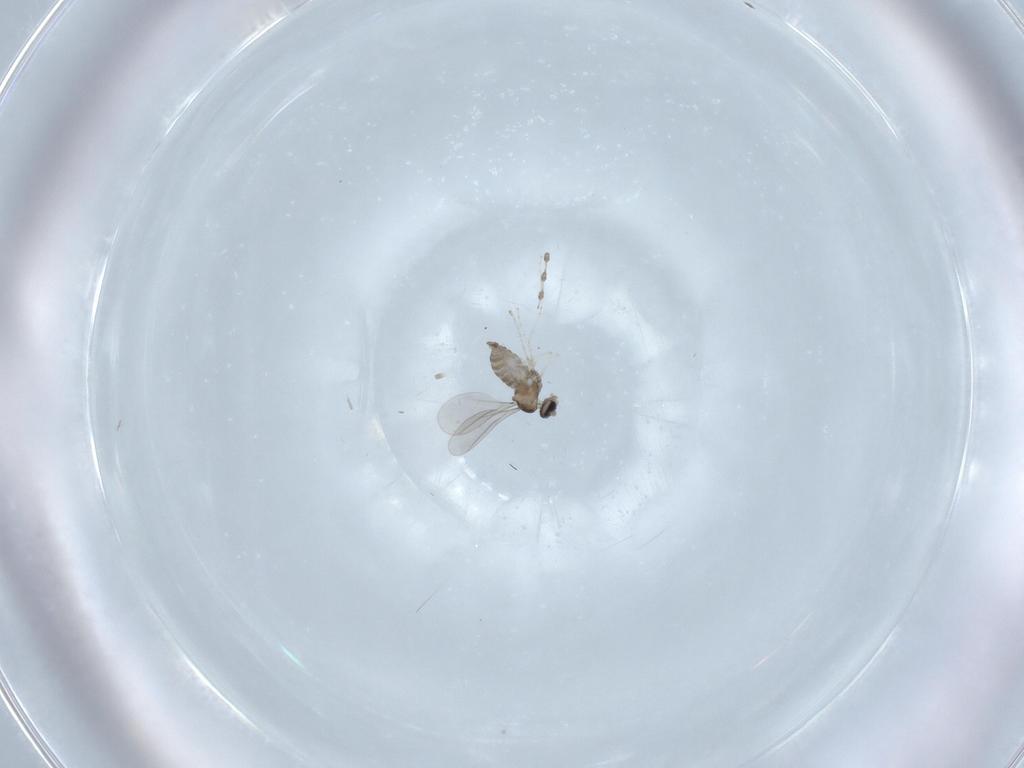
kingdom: Animalia
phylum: Arthropoda
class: Insecta
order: Diptera
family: Cecidomyiidae
